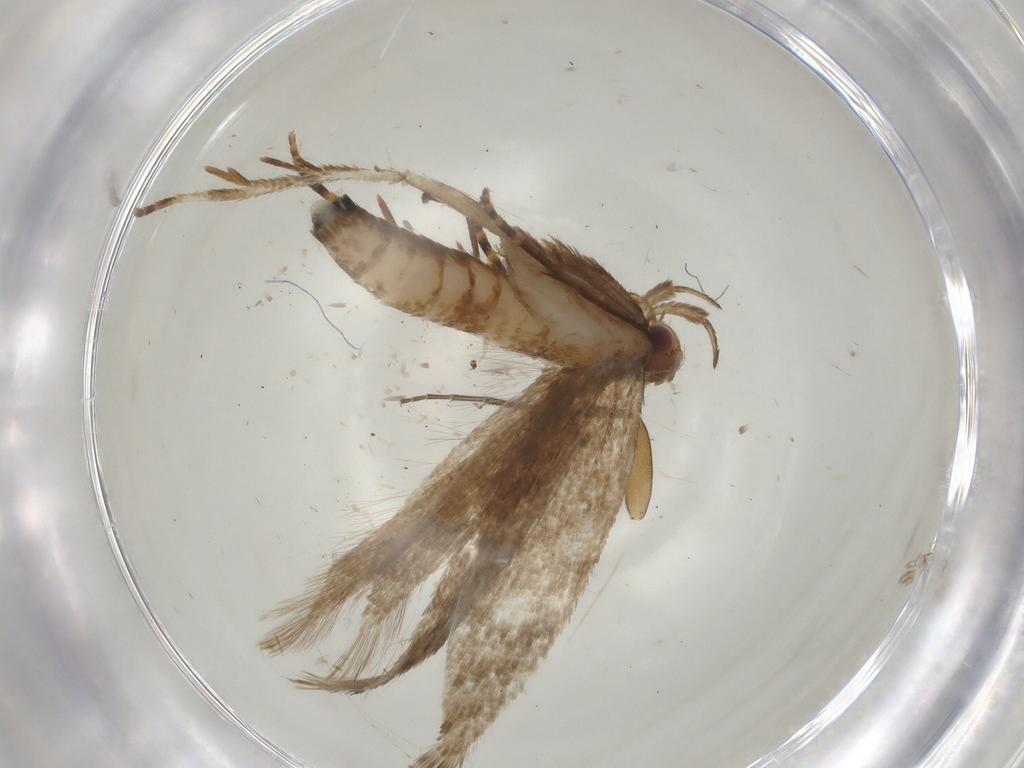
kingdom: Animalia
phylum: Arthropoda
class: Insecta
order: Lepidoptera
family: Gelechiidae
